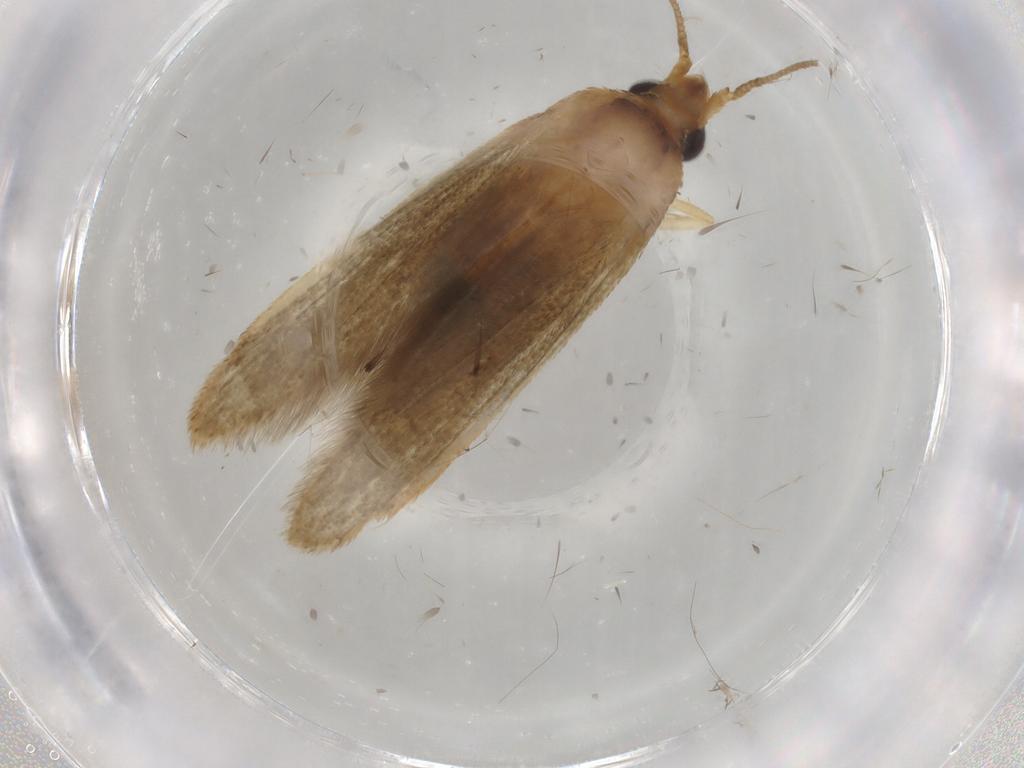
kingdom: Animalia
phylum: Arthropoda
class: Insecta
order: Lepidoptera
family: Blastobasidae
